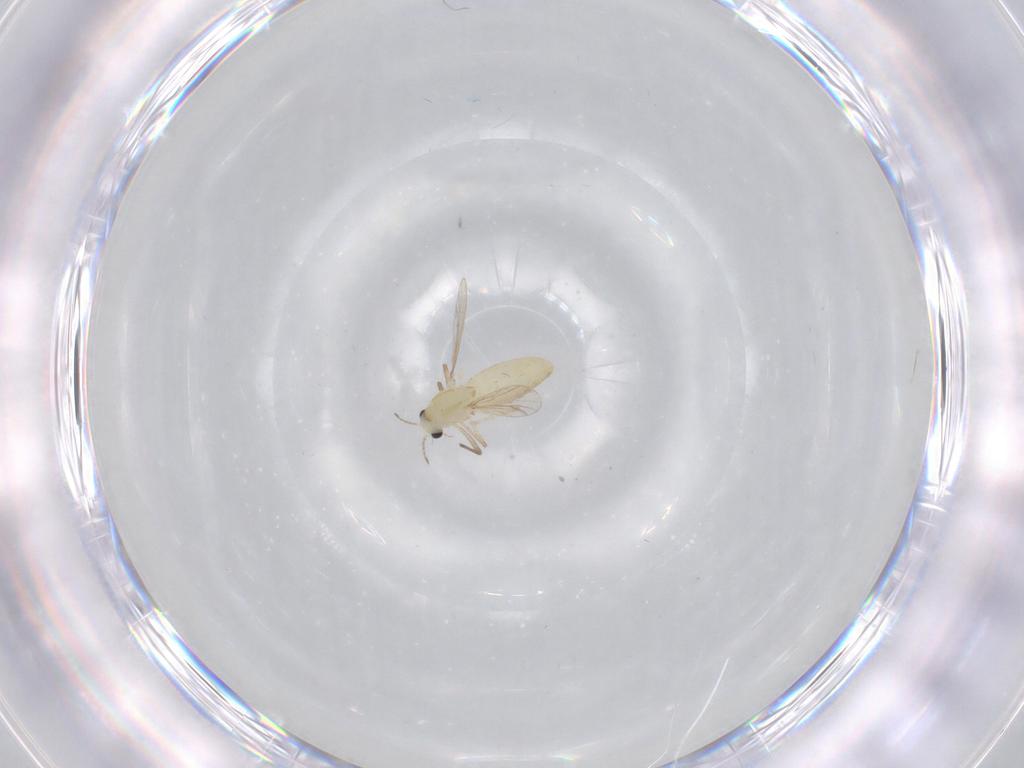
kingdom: Animalia
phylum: Arthropoda
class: Insecta
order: Diptera
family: Chironomidae
